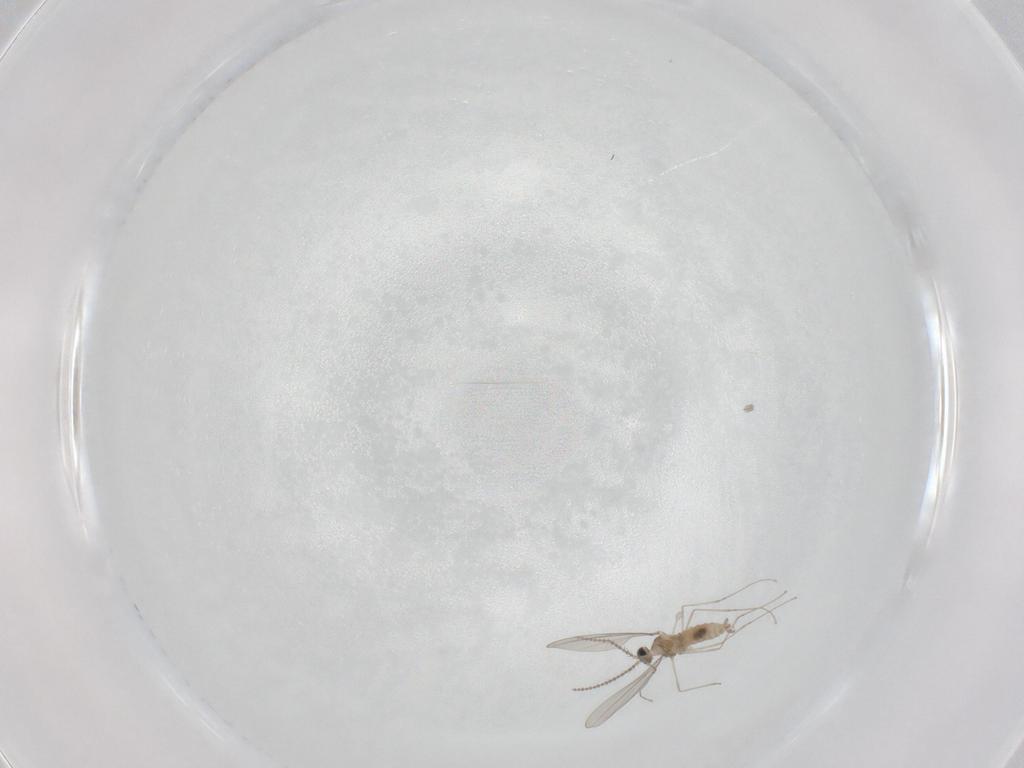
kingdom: Animalia
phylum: Arthropoda
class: Insecta
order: Diptera
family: Cecidomyiidae
